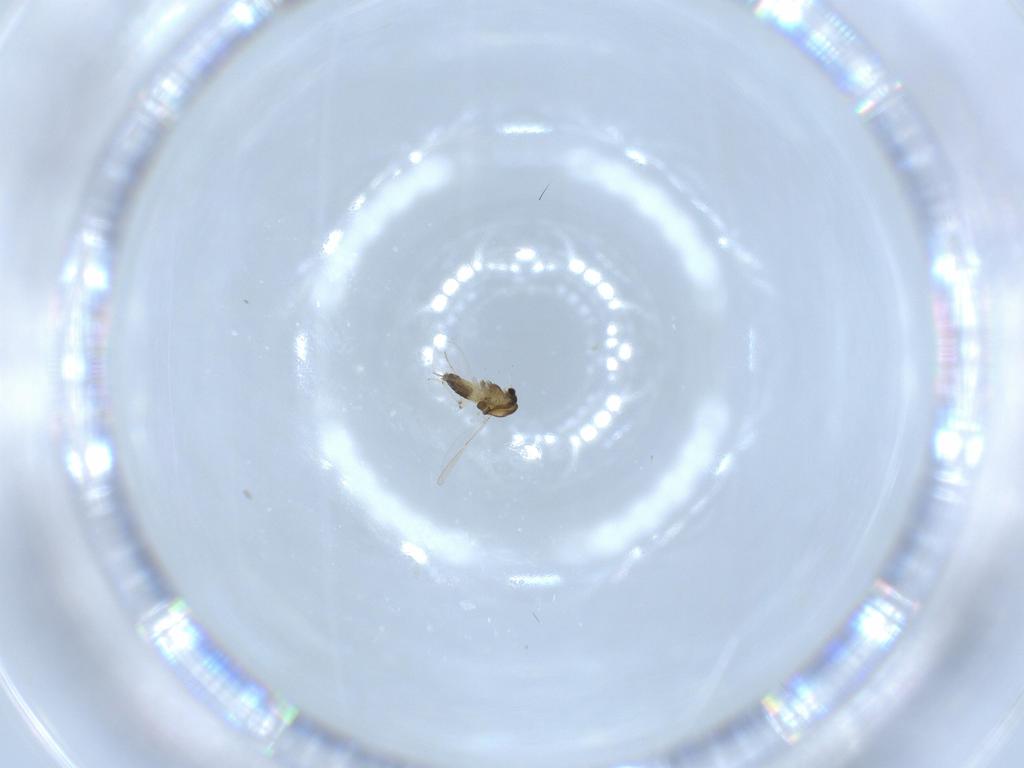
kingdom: Animalia
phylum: Arthropoda
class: Insecta
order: Diptera
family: Chironomidae
